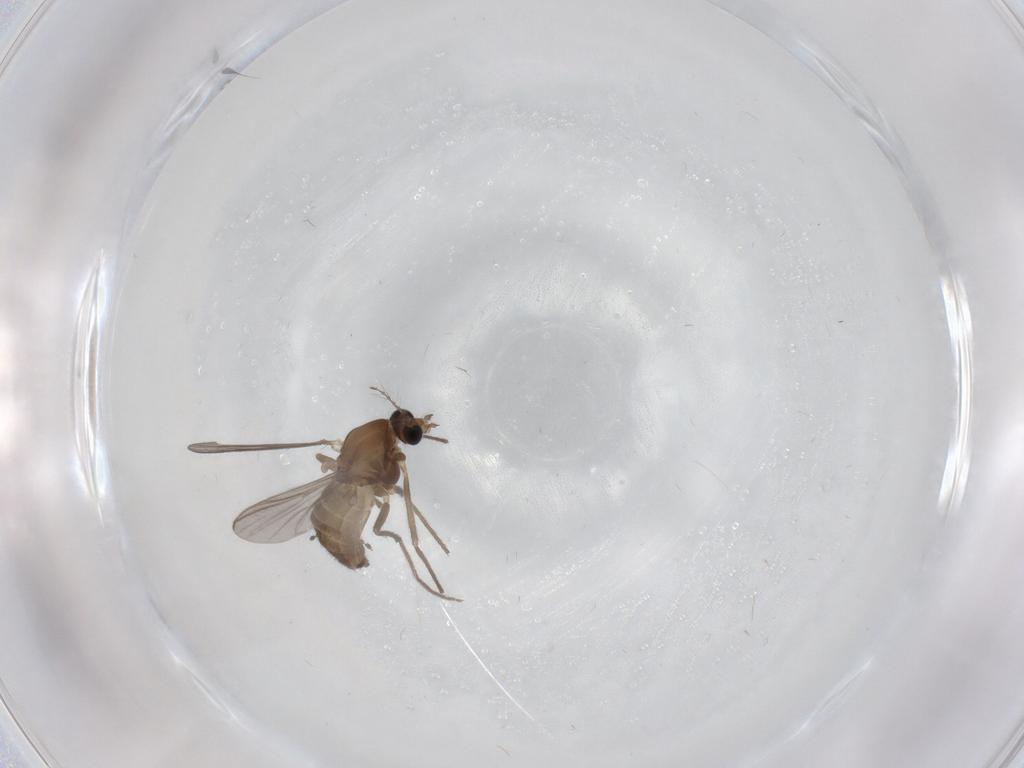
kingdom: Animalia
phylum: Arthropoda
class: Insecta
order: Diptera
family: Chironomidae
